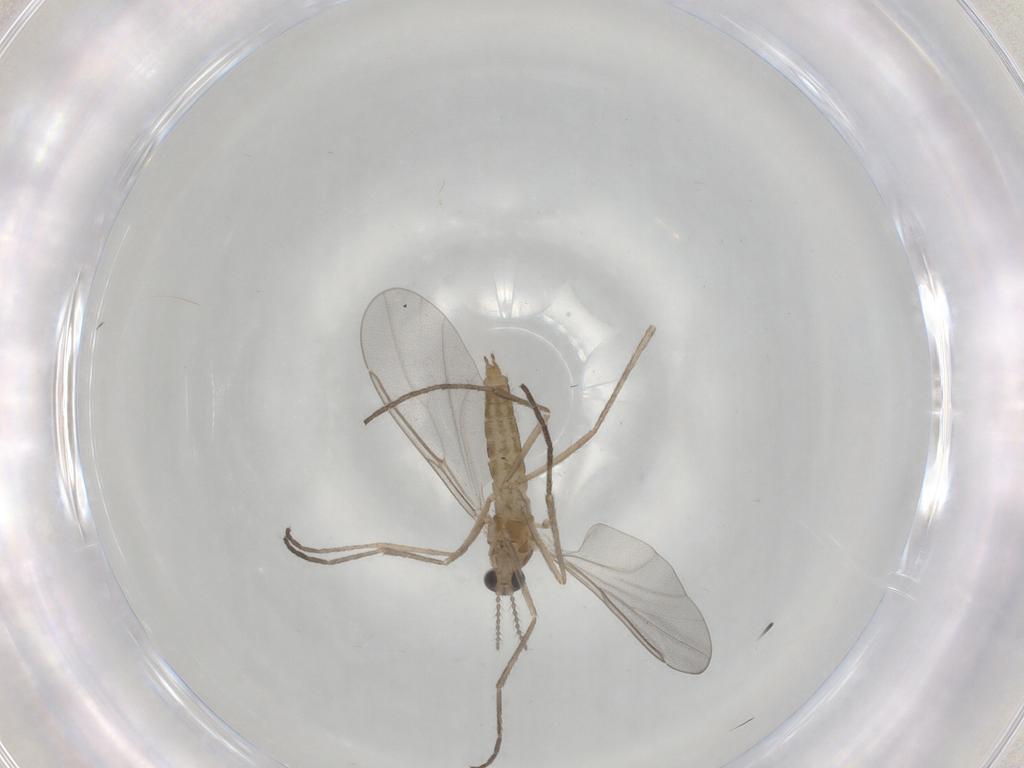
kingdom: Animalia
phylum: Arthropoda
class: Insecta
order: Diptera
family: Cecidomyiidae
